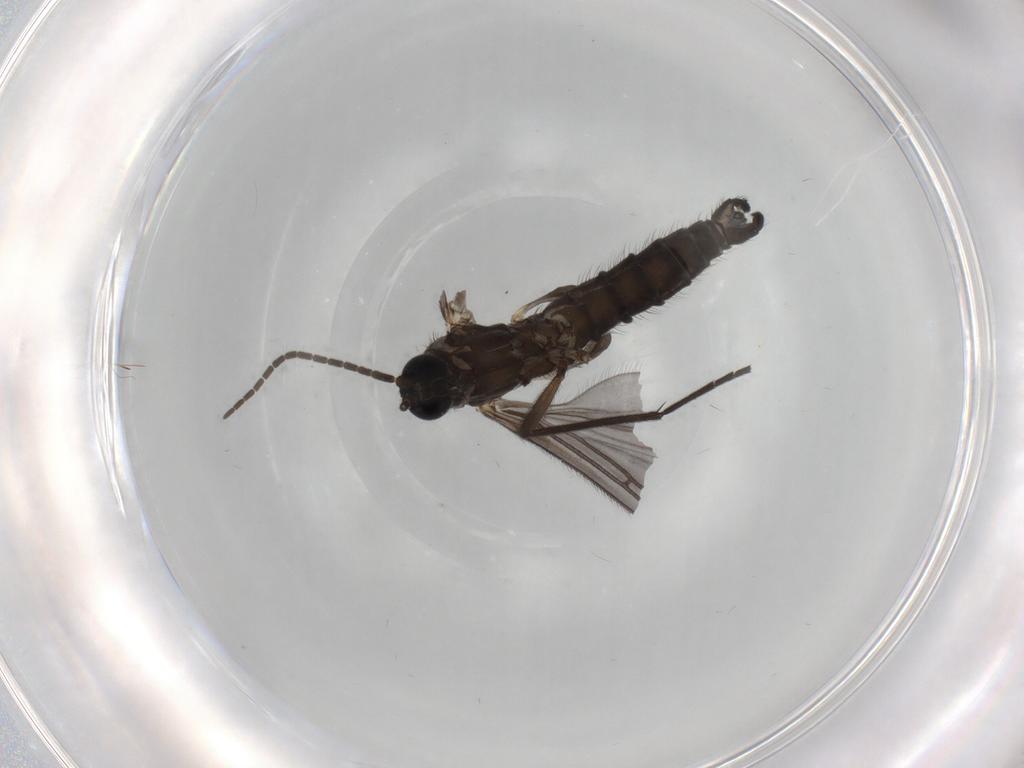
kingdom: Animalia
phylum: Arthropoda
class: Insecta
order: Diptera
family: Sciaridae
